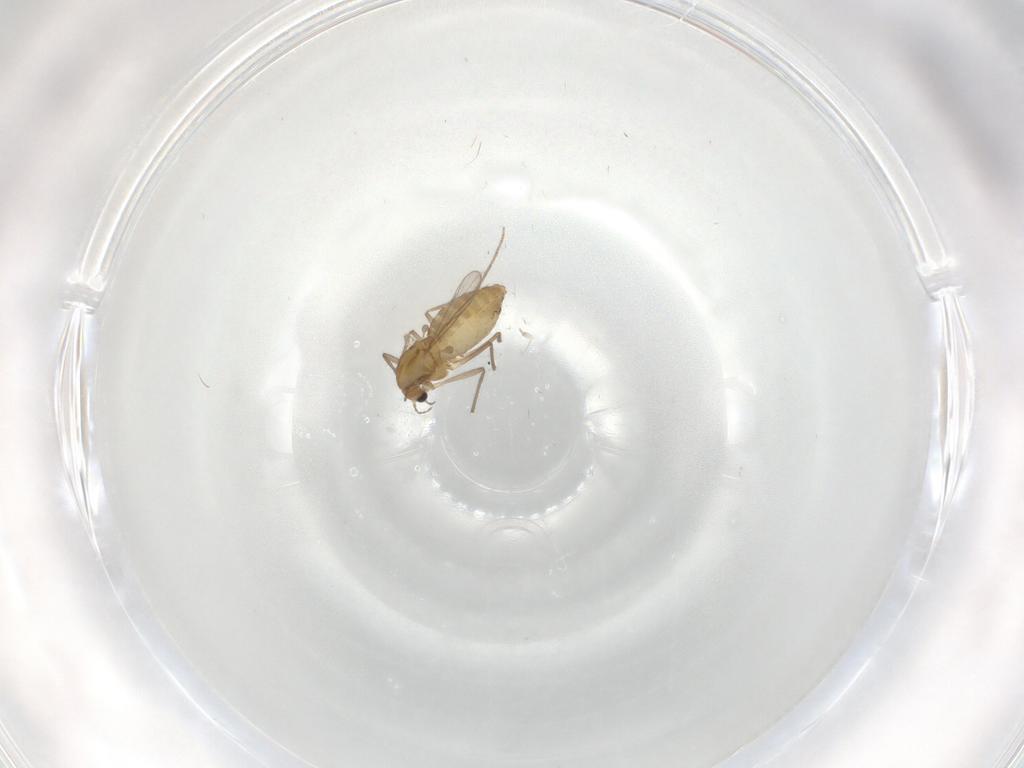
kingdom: Animalia
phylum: Arthropoda
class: Insecta
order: Diptera
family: Chironomidae
